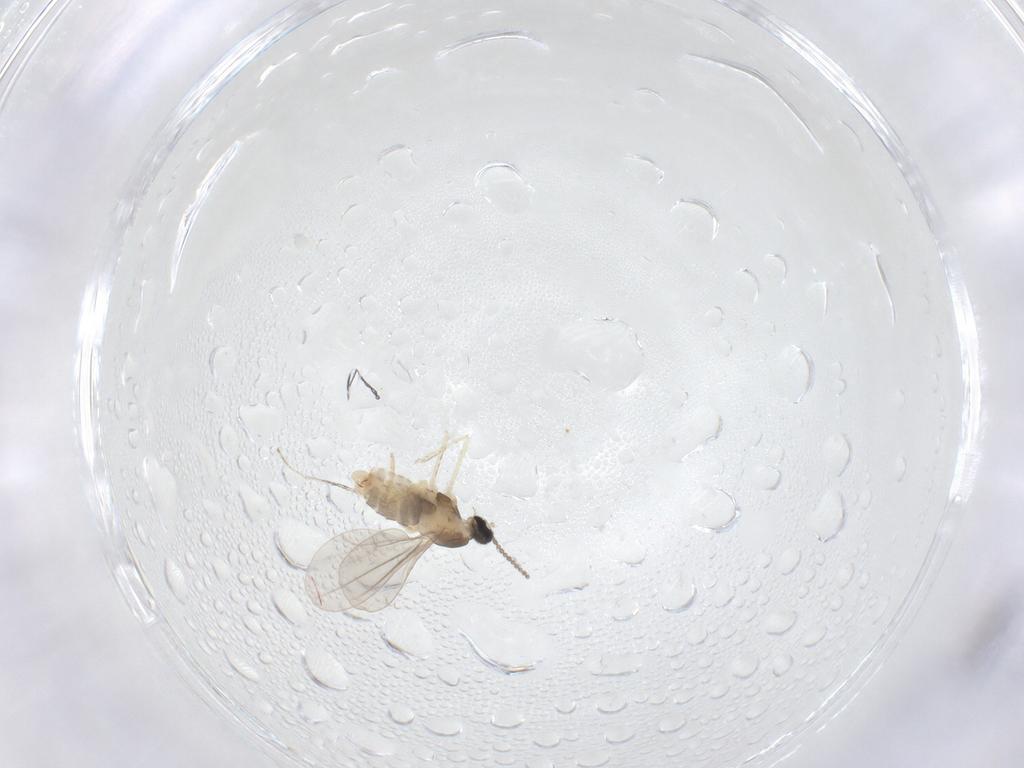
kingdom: Animalia
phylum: Arthropoda
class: Insecta
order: Diptera
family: Cecidomyiidae
